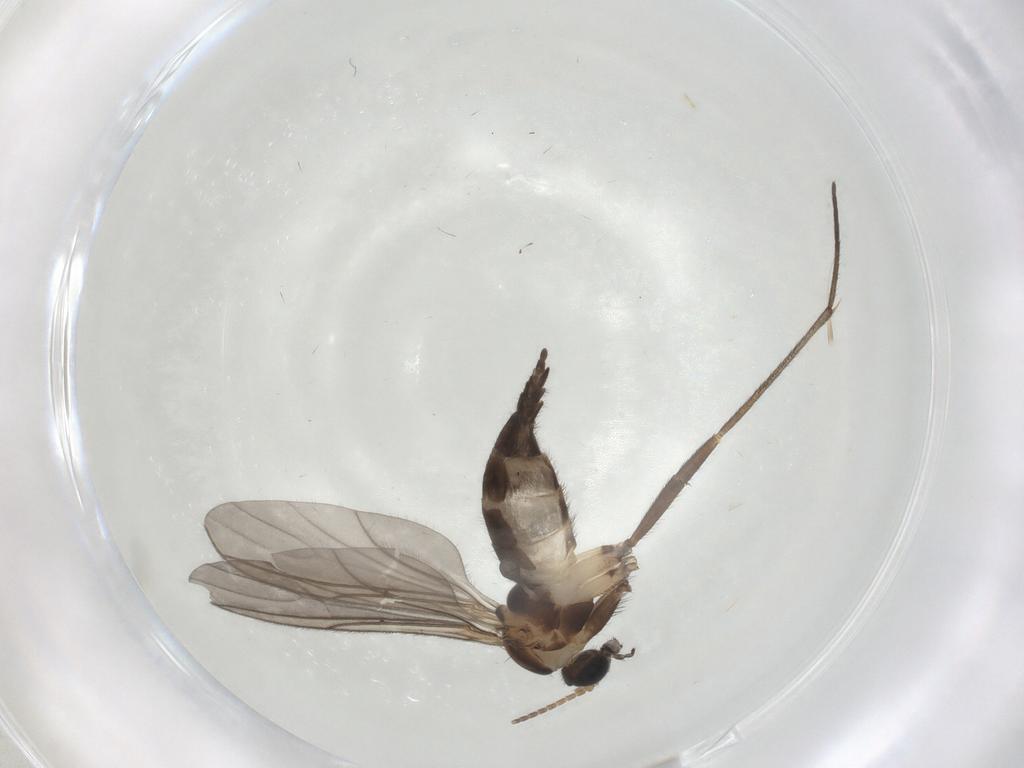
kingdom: Animalia
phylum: Arthropoda
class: Insecta
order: Diptera
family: Sciaridae
